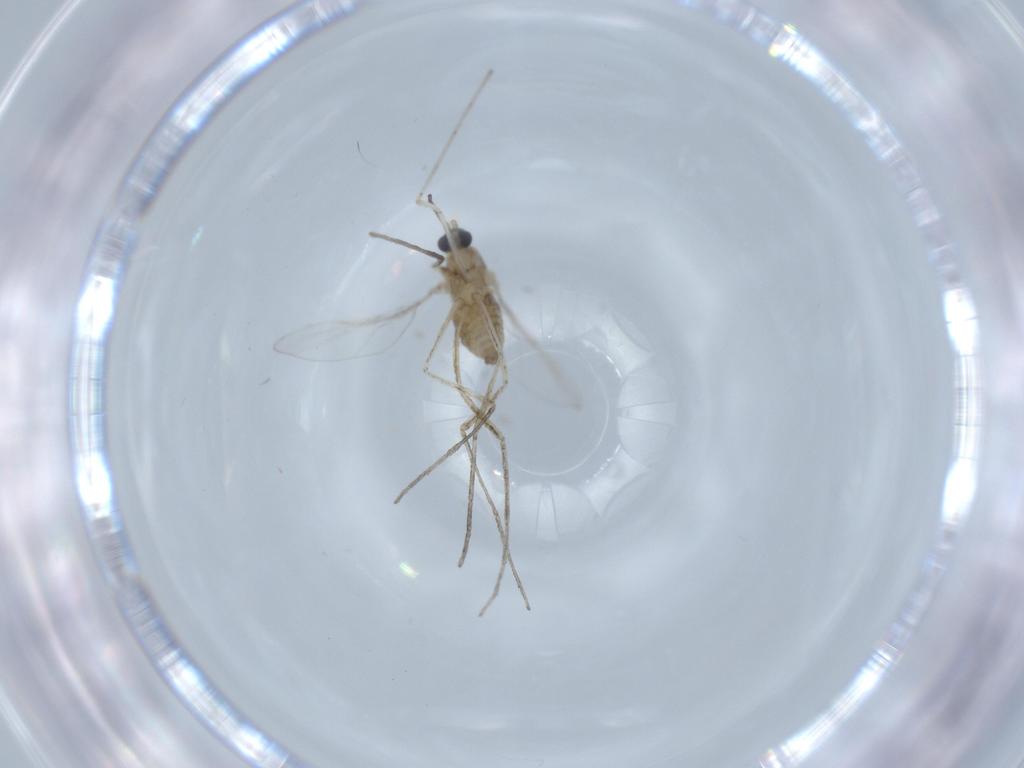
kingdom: Animalia
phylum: Arthropoda
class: Insecta
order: Diptera
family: Cecidomyiidae
